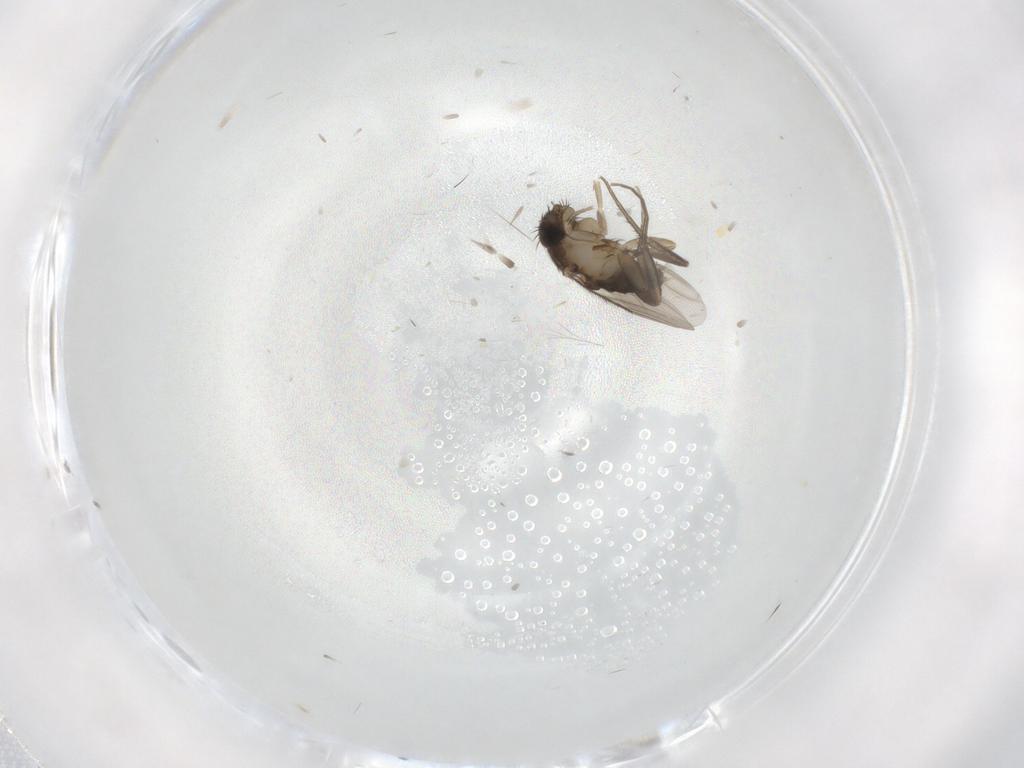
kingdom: Animalia
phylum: Arthropoda
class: Insecta
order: Diptera
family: Phoridae
